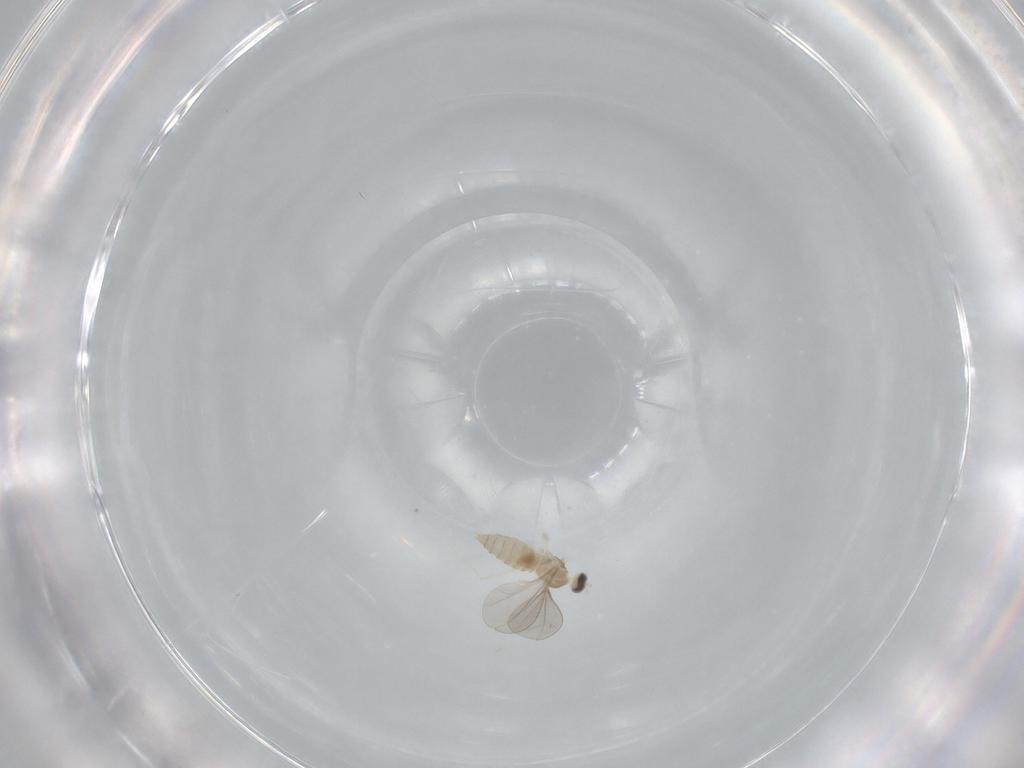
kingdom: Animalia
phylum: Arthropoda
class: Insecta
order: Diptera
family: Cecidomyiidae
